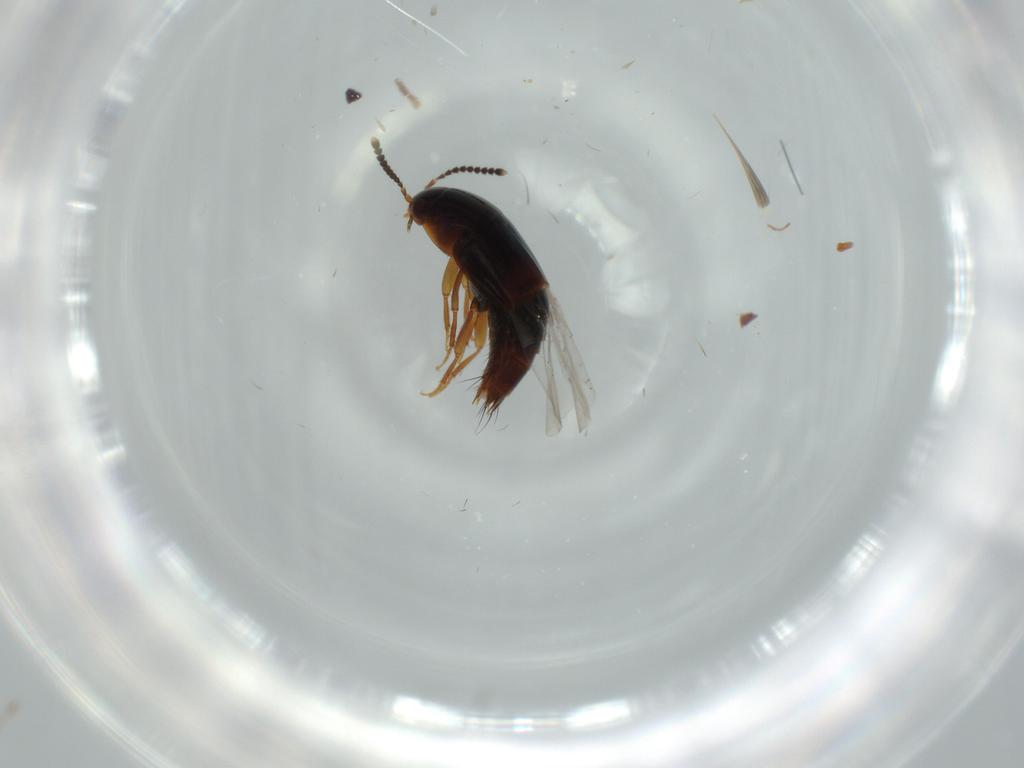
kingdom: Animalia
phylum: Arthropoda
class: Insecta
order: Coleoptera
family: Staphylinidae
